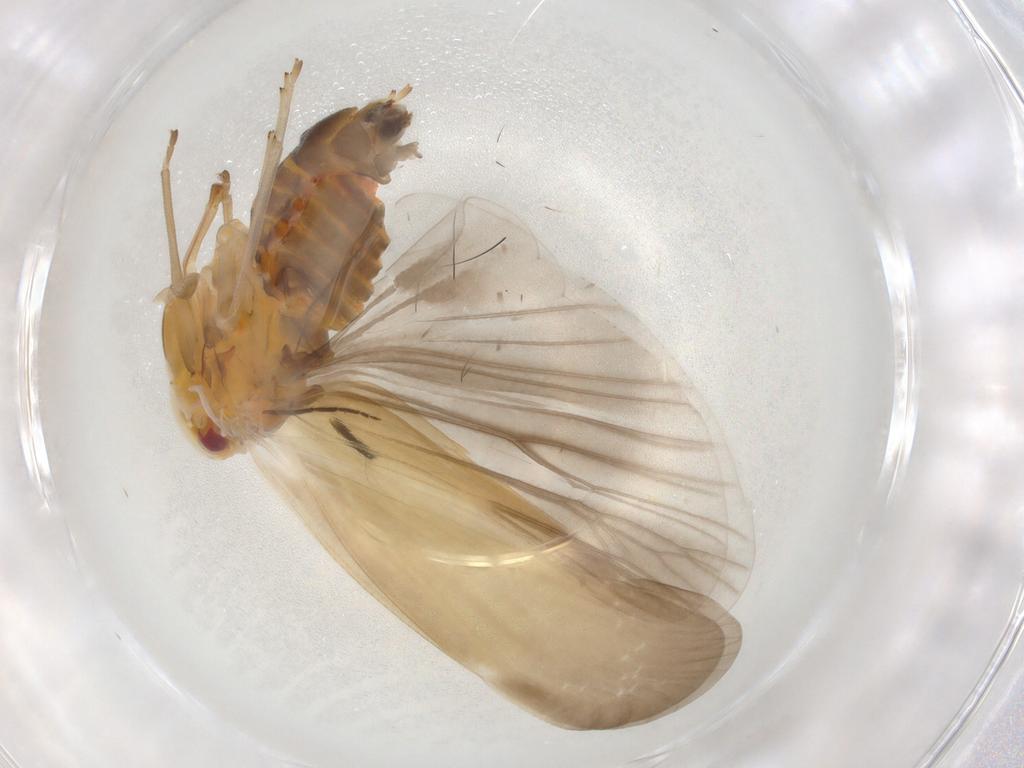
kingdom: Animalia
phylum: Arthropoda
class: Insecta
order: Hemiptera
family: Derbidae
